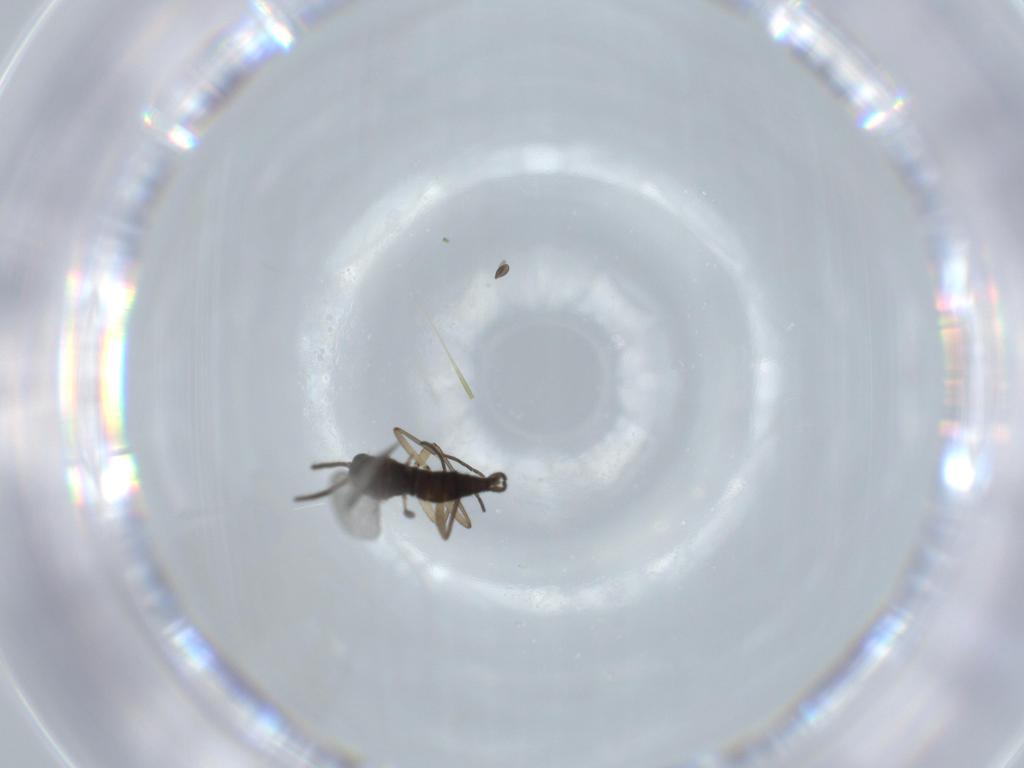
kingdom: Animalia
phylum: Arthropoda
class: Insecta
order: Diptera
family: Sciaridae
